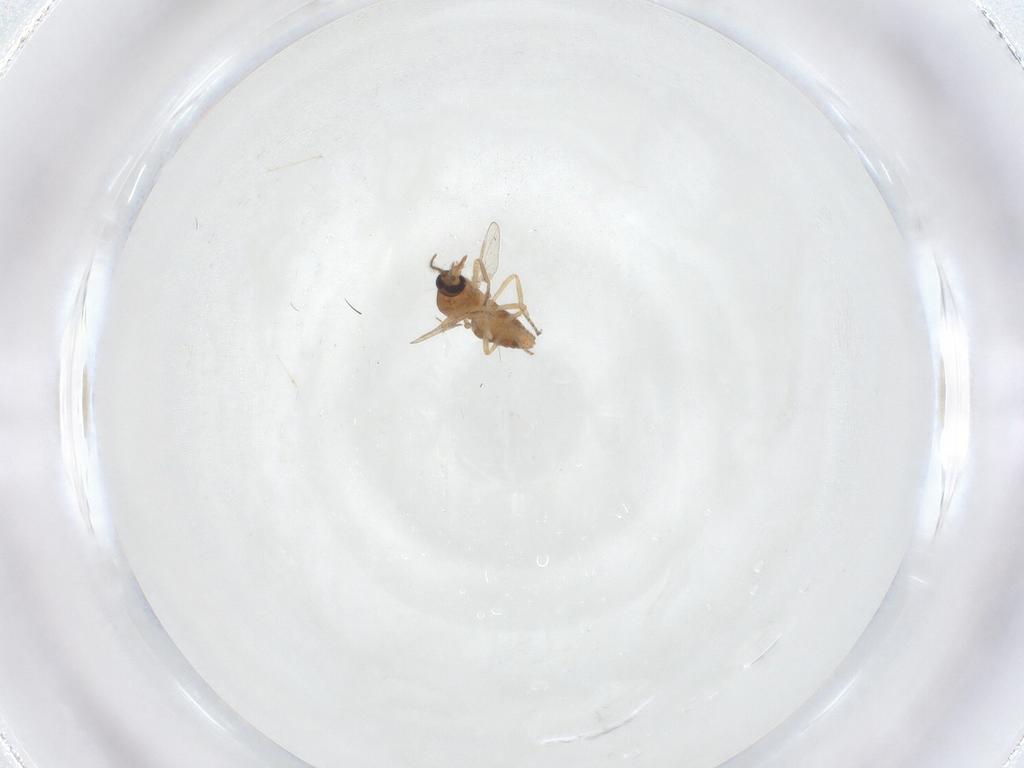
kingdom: Animalia
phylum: Arthropoda
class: Insecta
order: Diptera
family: Ceratopogonidae
